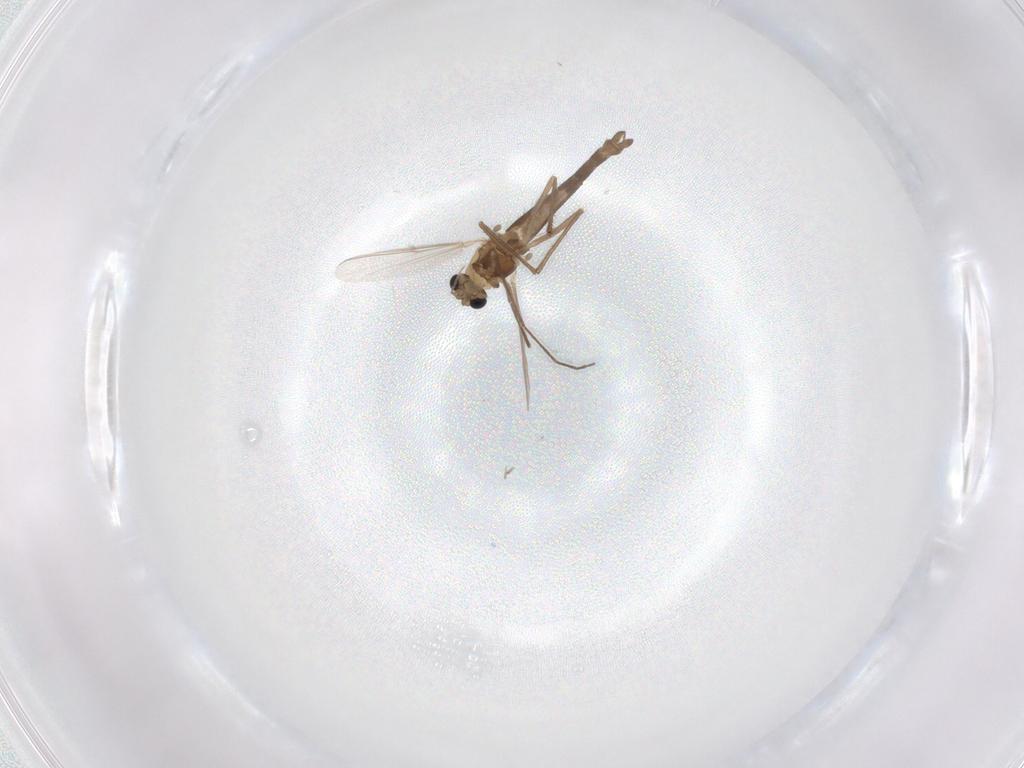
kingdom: Animalia
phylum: Arthropoda
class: Insecta
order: Diptera
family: Chironomidae
